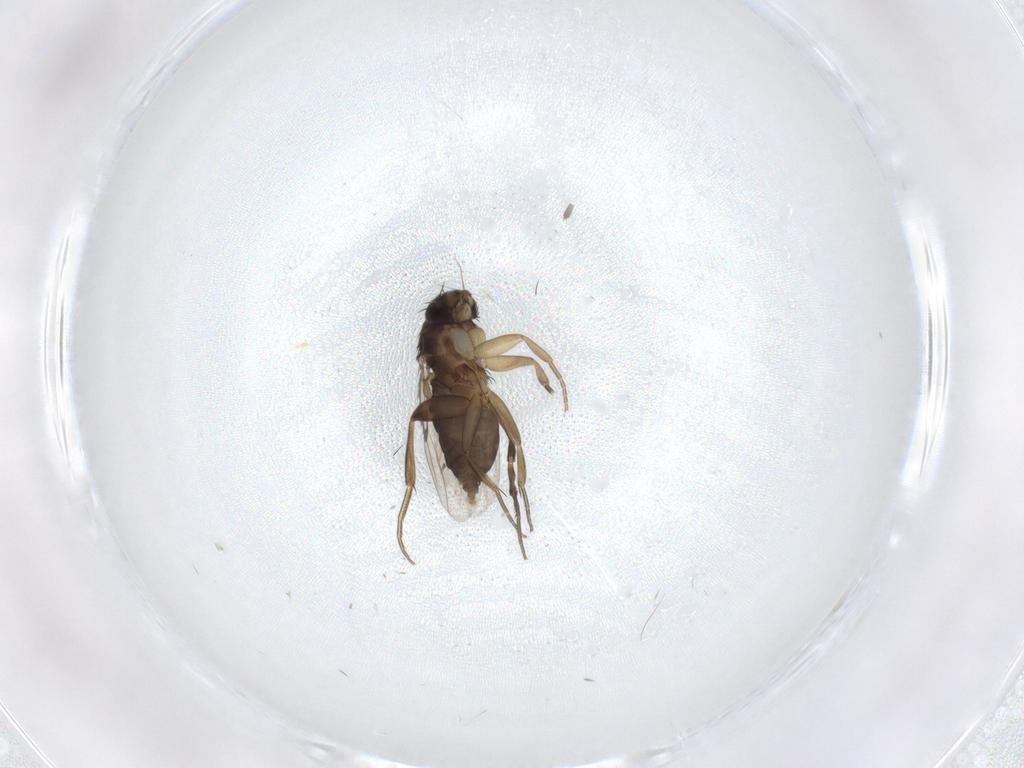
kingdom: Animalia
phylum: Arthropoda
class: Insecta
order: Diptera
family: Phoridae
